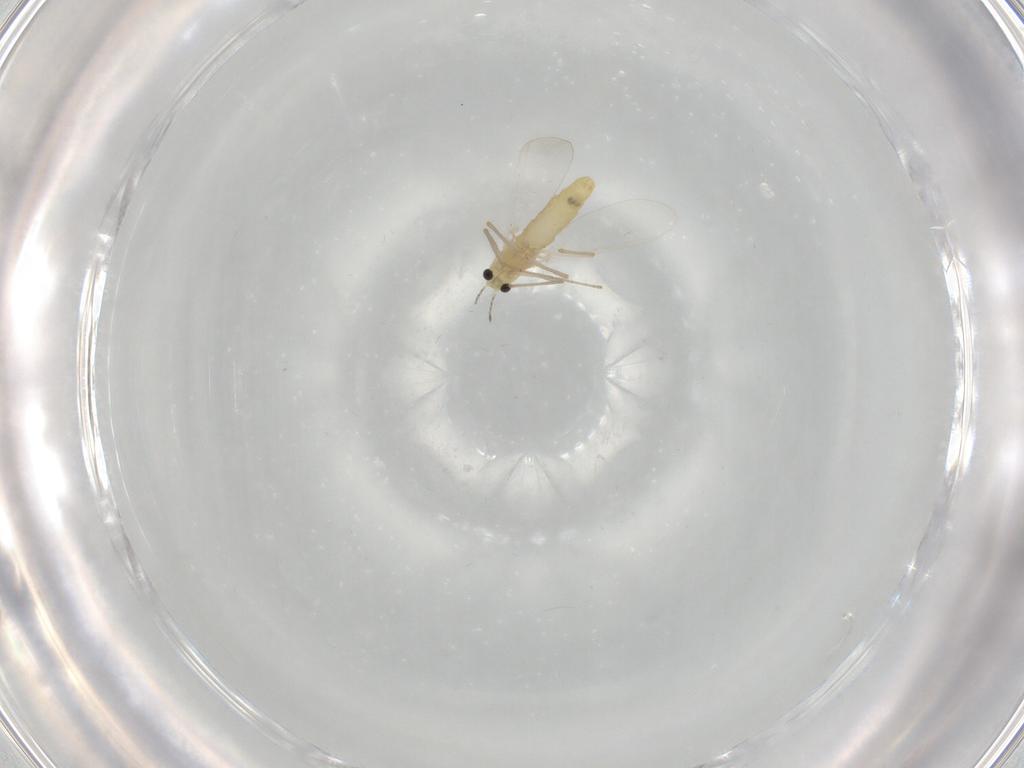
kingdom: Animalia
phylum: Arthropoda
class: Insecta
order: Diptera
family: Chironomidae
